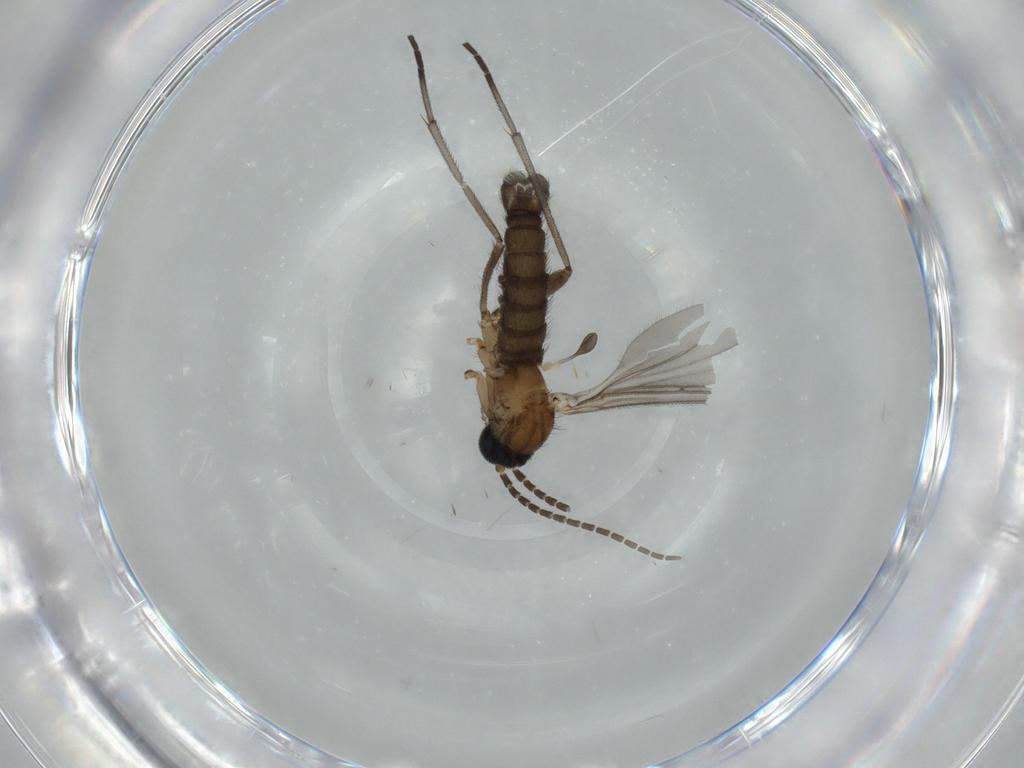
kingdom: Animalia
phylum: Arthropoda
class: Insecta
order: Diptera
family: Sciaridae
